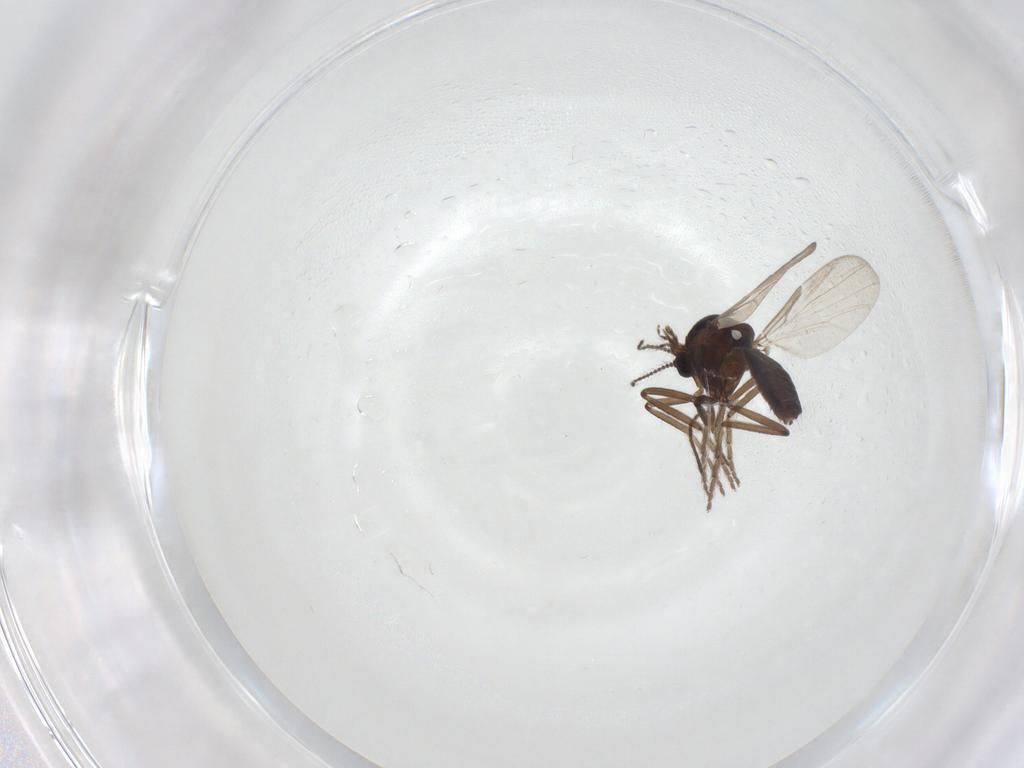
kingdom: Animalia
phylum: Arthropoda
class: Insecta
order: Diptera
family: Ceratopogonidae
